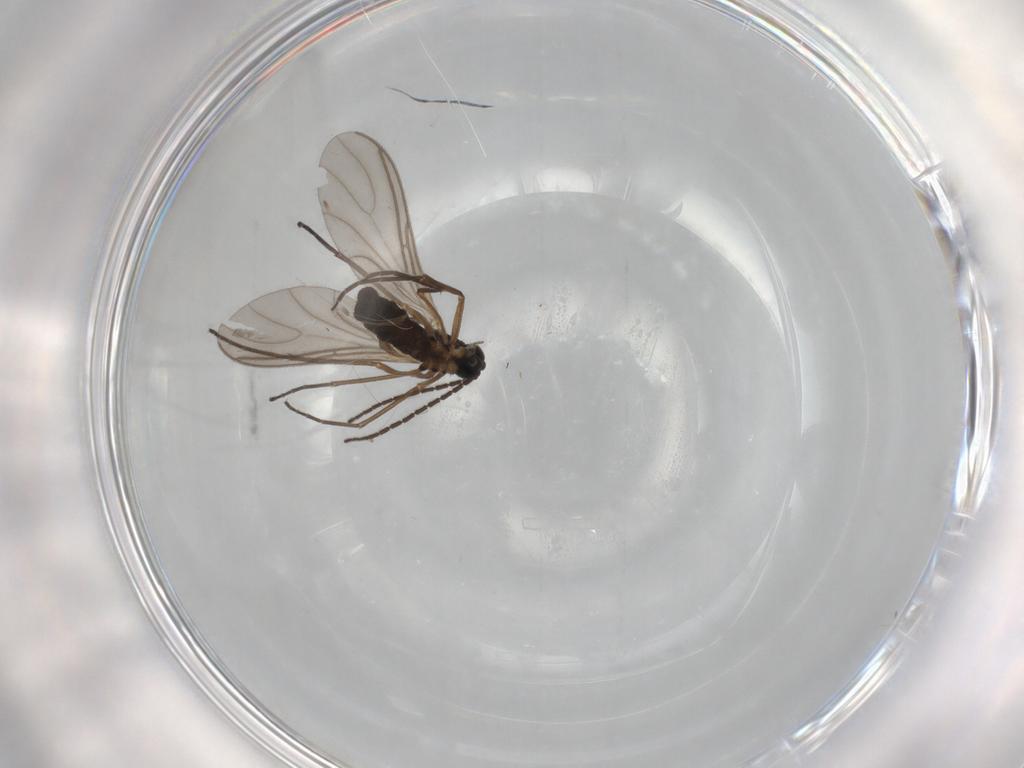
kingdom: Animalia
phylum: Arthropoda
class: Insecta
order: Diptera
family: Sciaridae
